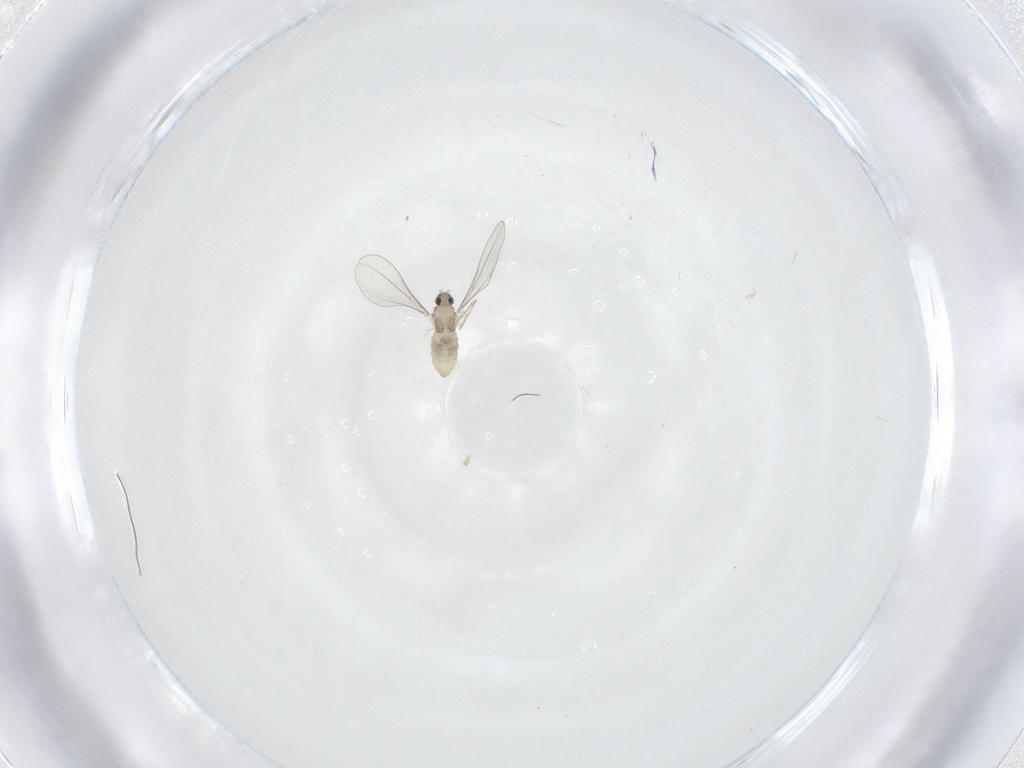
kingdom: Animalia
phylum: Arthropoda
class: Insecta
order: Diptera
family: Cecidomyiidae
